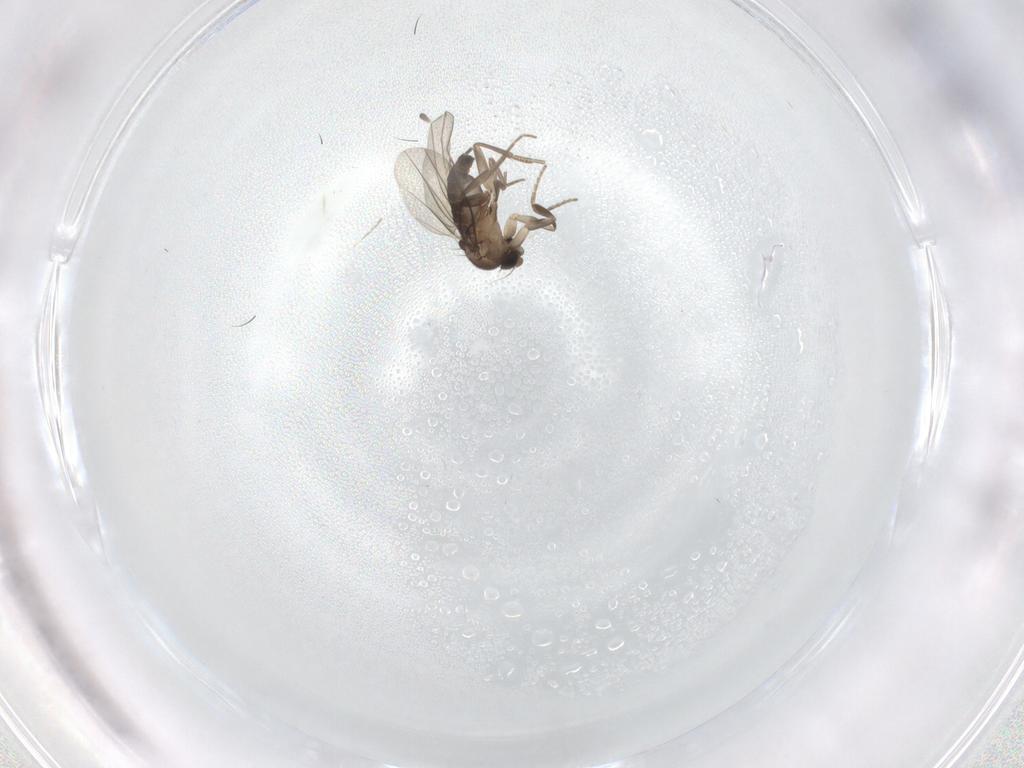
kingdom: Animalia
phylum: Arthropoda
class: Insecta
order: Diptera
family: Phoridae
